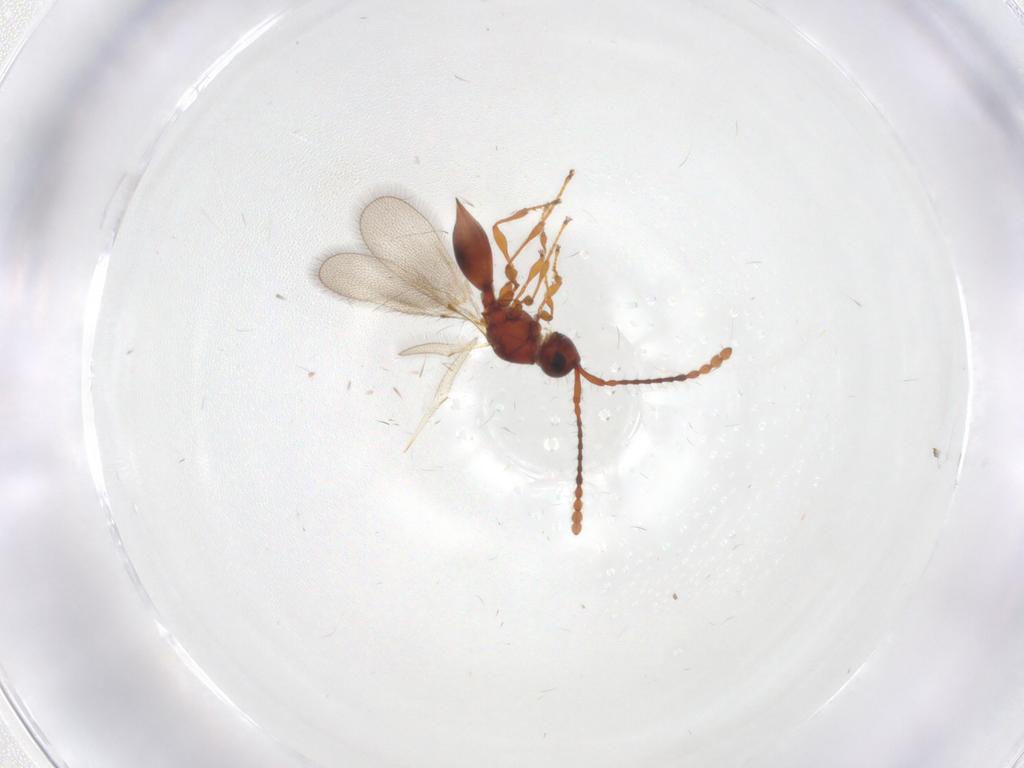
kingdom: Animalia
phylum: Arthropoda
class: Insecta
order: Hymenoptera
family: Diapriidae
